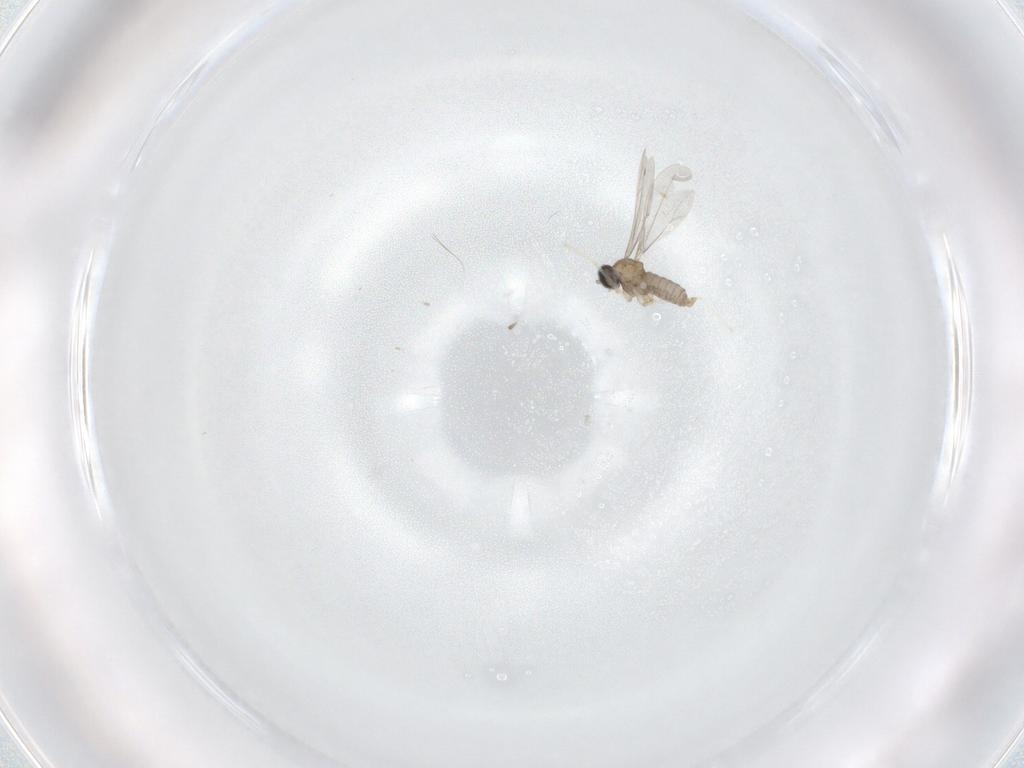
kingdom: Animalia
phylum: Arthropoda
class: Insecta
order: Diptera
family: Cecidomyiidae
